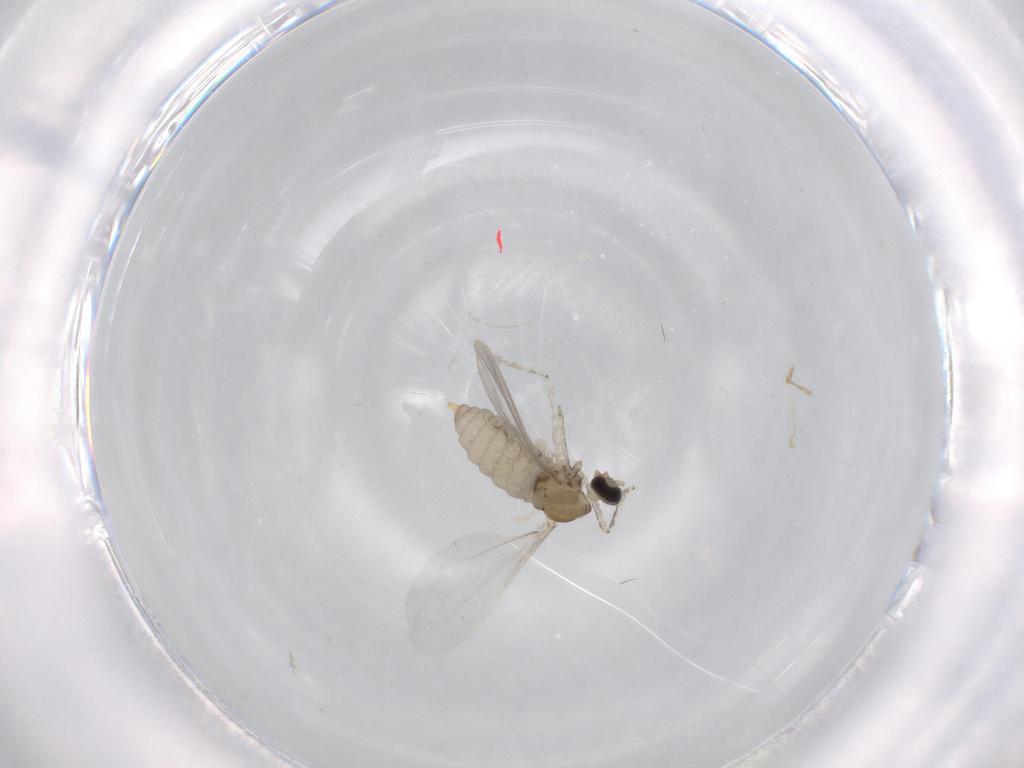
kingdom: Animalia
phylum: Arthropoda
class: Insecta
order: Diptera
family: Cecidomyiidae
